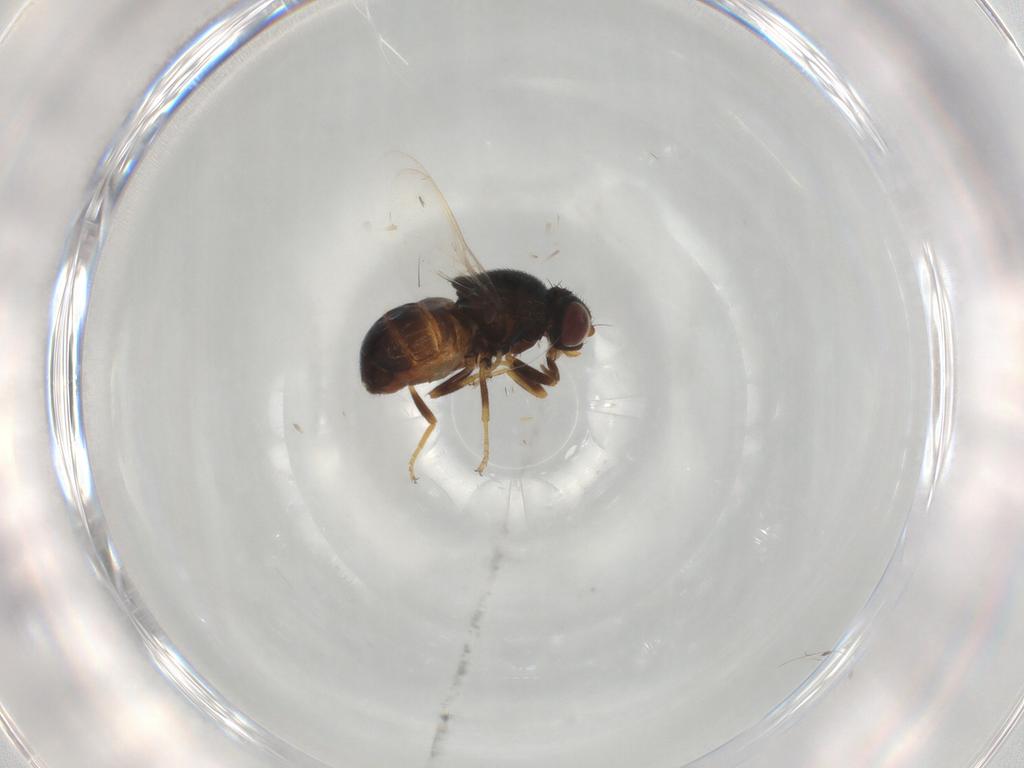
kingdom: Animalia
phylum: Arthropoda
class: Insecta
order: Diptera
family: Chloropidae
